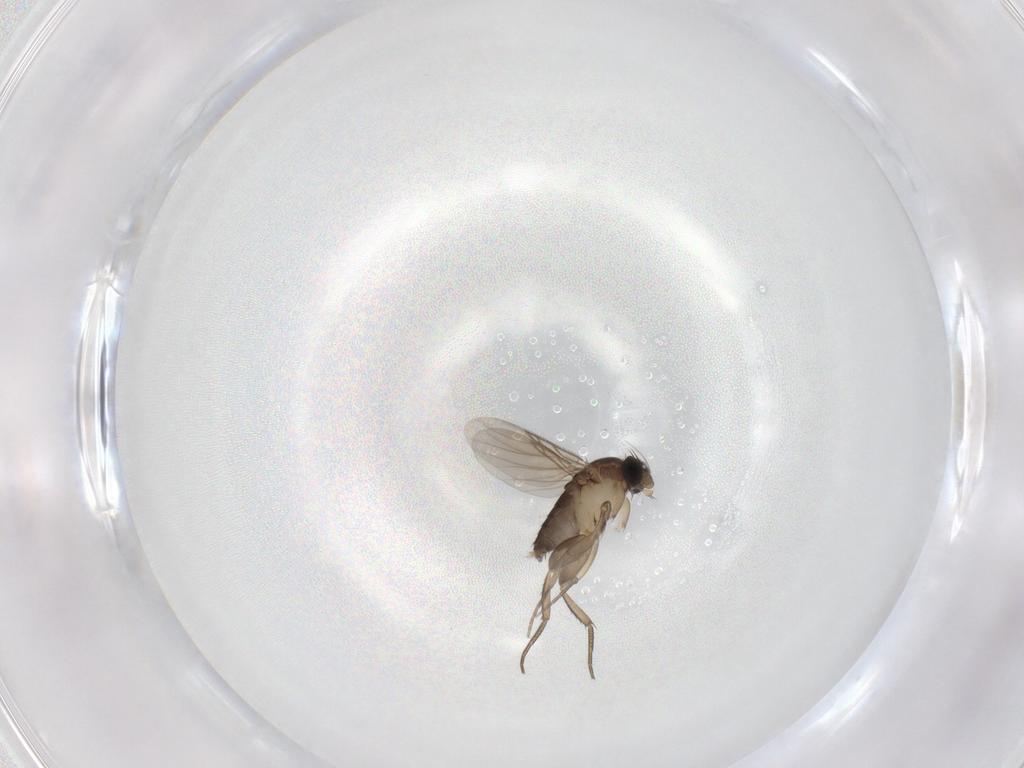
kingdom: Animalia
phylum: Arthropoda
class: Insecta
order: Diptera
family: Phoridae
